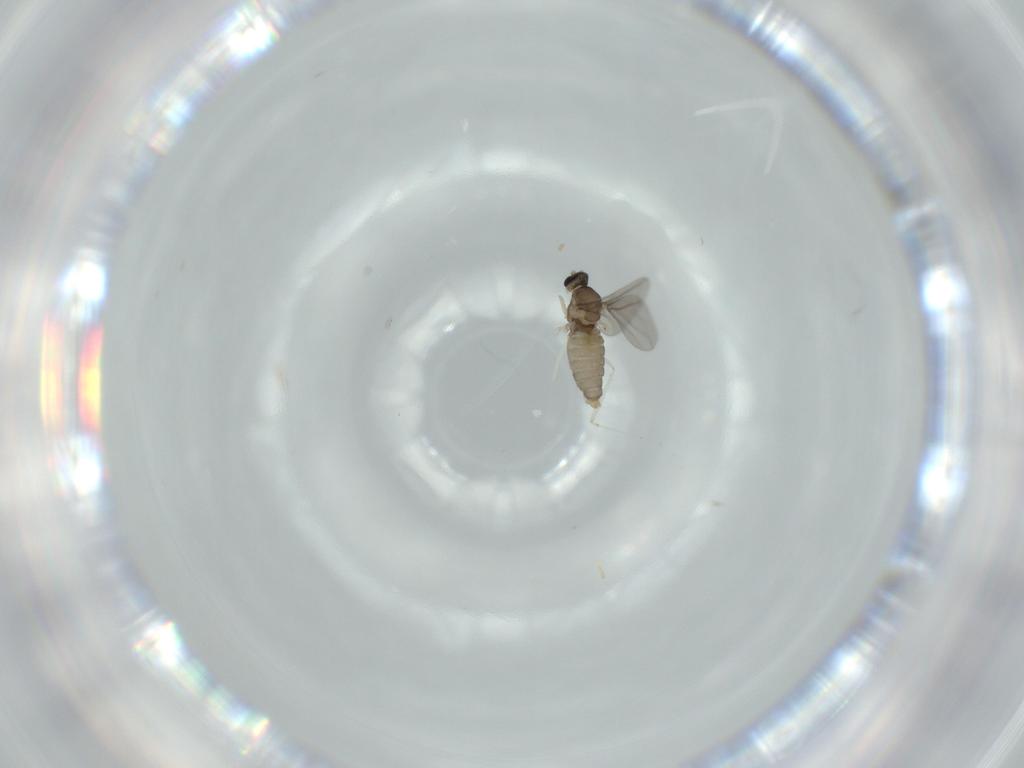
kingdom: Animalia
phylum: Arthropoda
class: Insecta
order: Diptera
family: Cecidomyiidae
